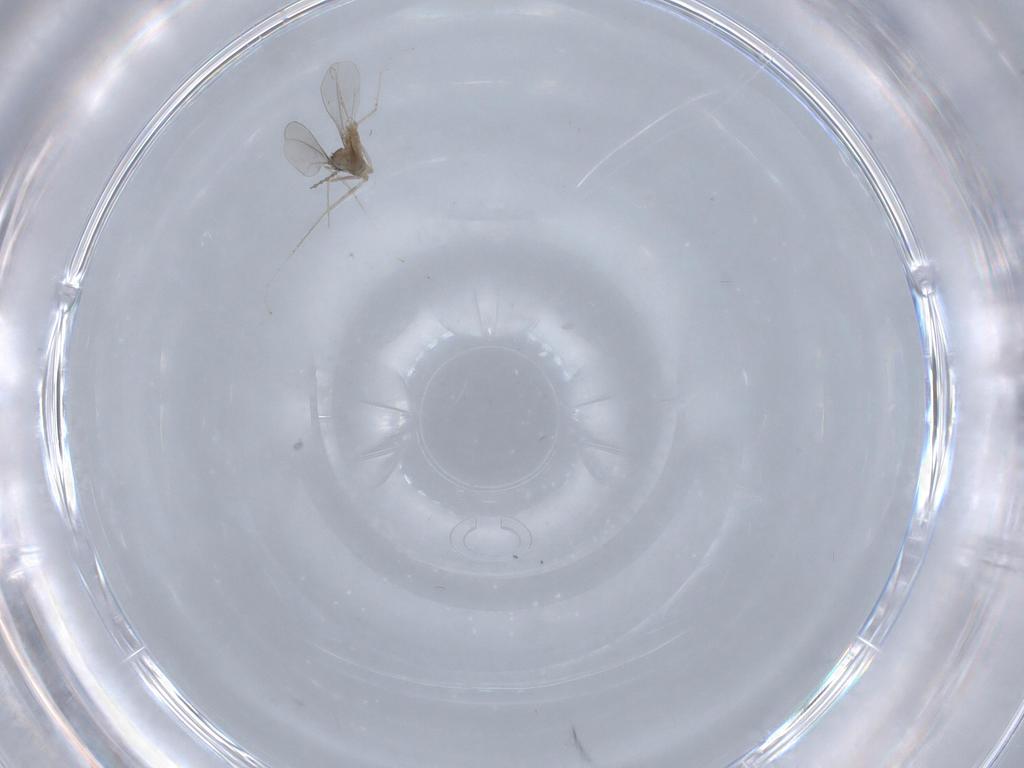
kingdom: Animalia
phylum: Arthropoda
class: Insecta
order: Diptera
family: Cecidomyiidae
